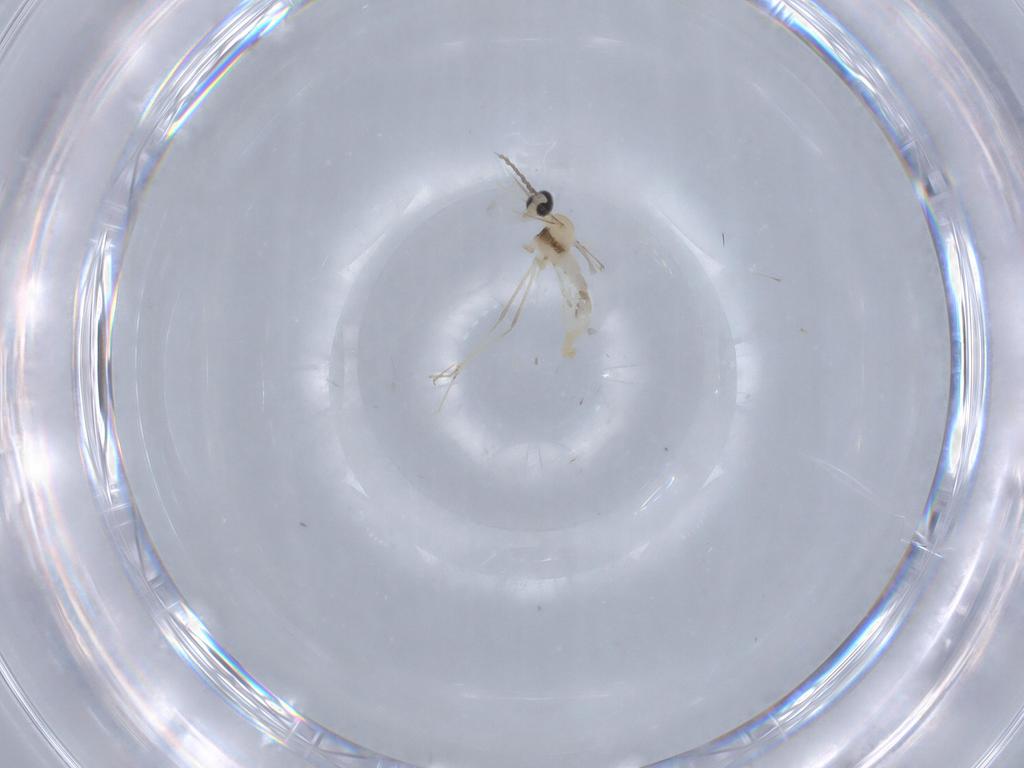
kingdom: Animalia
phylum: Arthropoda
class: Insecta
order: Diptera
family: Cecidomyiidae
